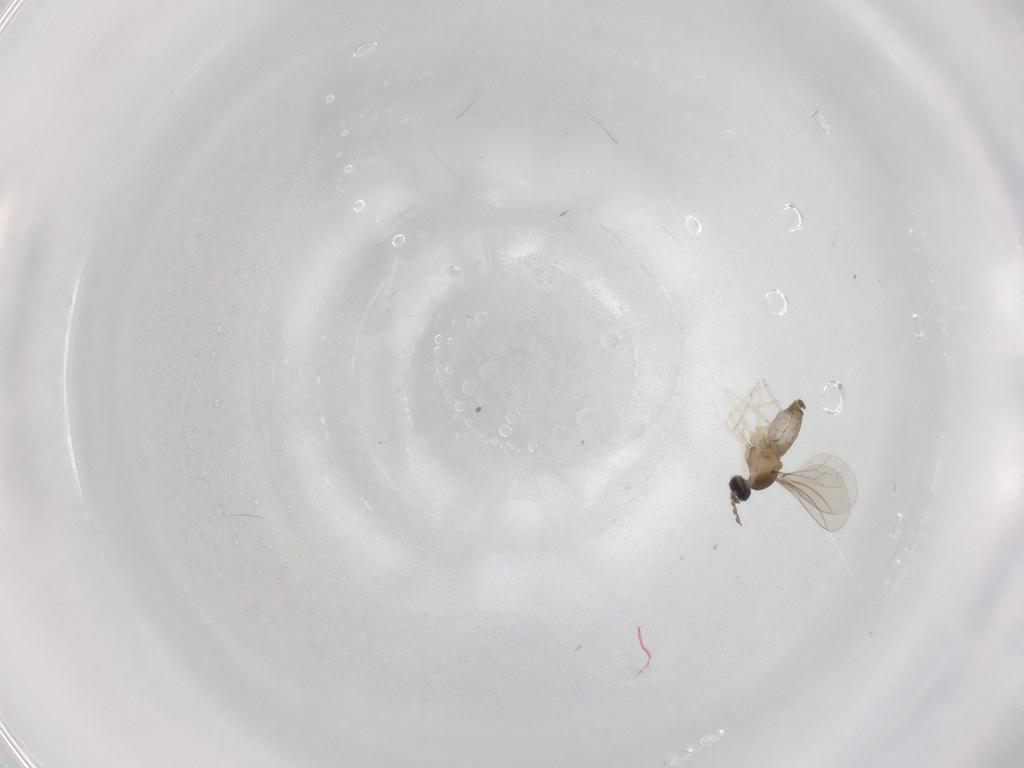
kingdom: Animalia
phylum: Arthropoda
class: Insecta
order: Diptera
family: Cecidomyiidae
